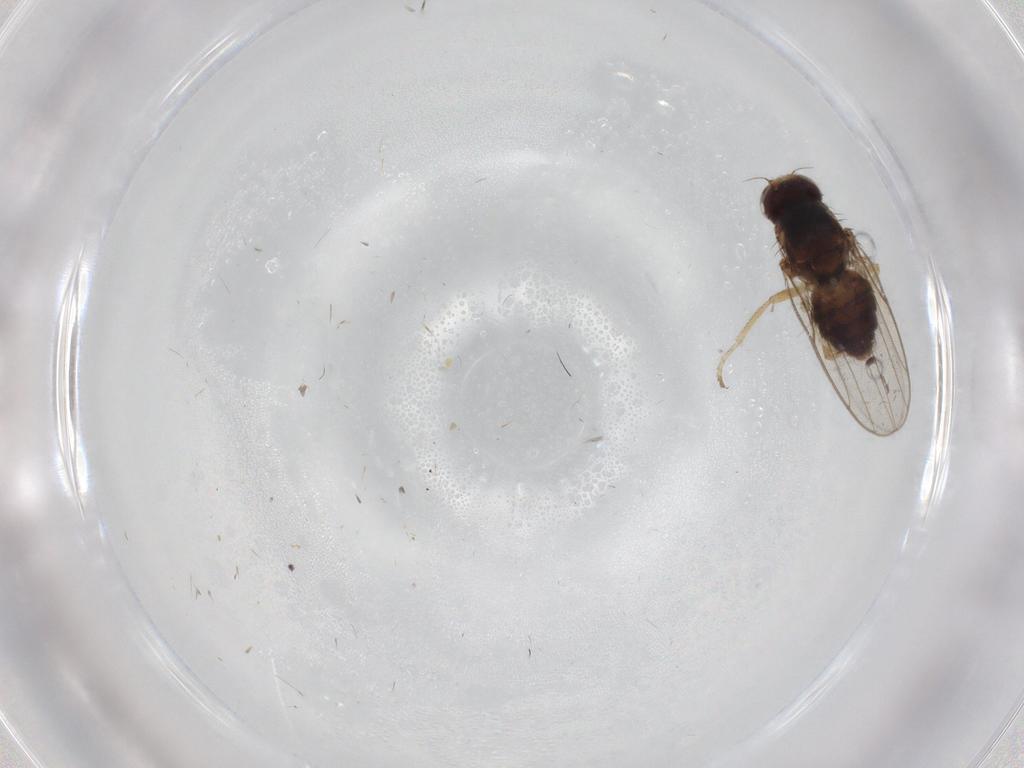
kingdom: Animalia
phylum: Arthropoda
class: Insecta
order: Diptera
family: Chloropidae
